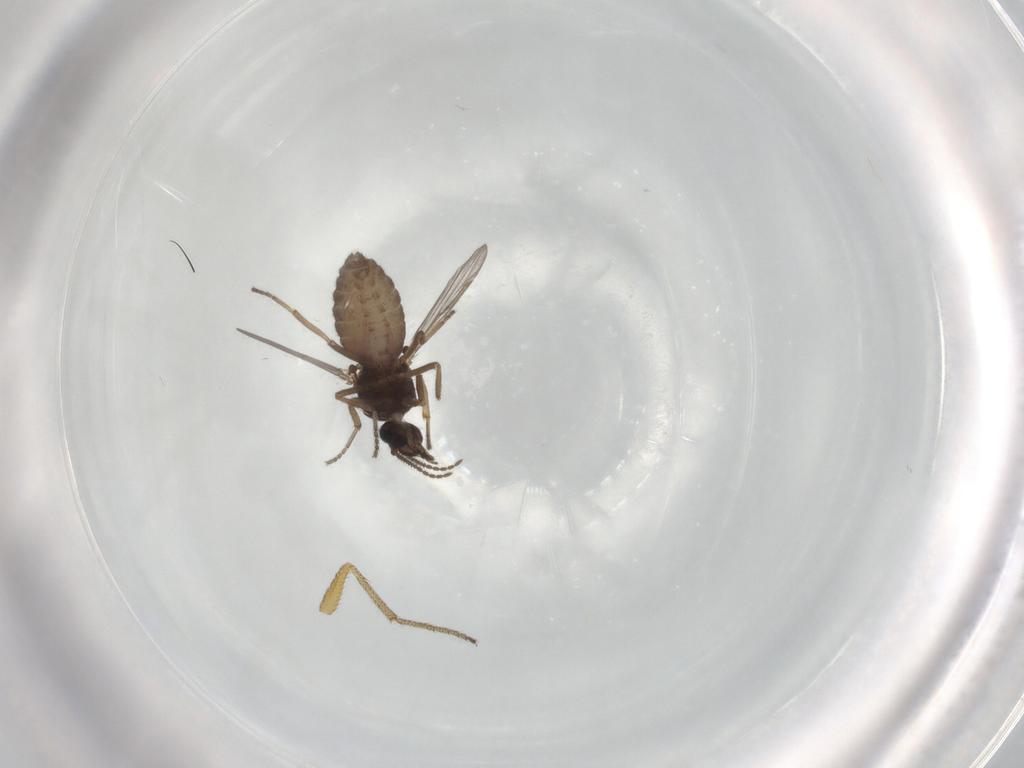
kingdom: Animalia
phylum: Arthropoda
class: Insecta
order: Diptera
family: Ceratopogonidae
